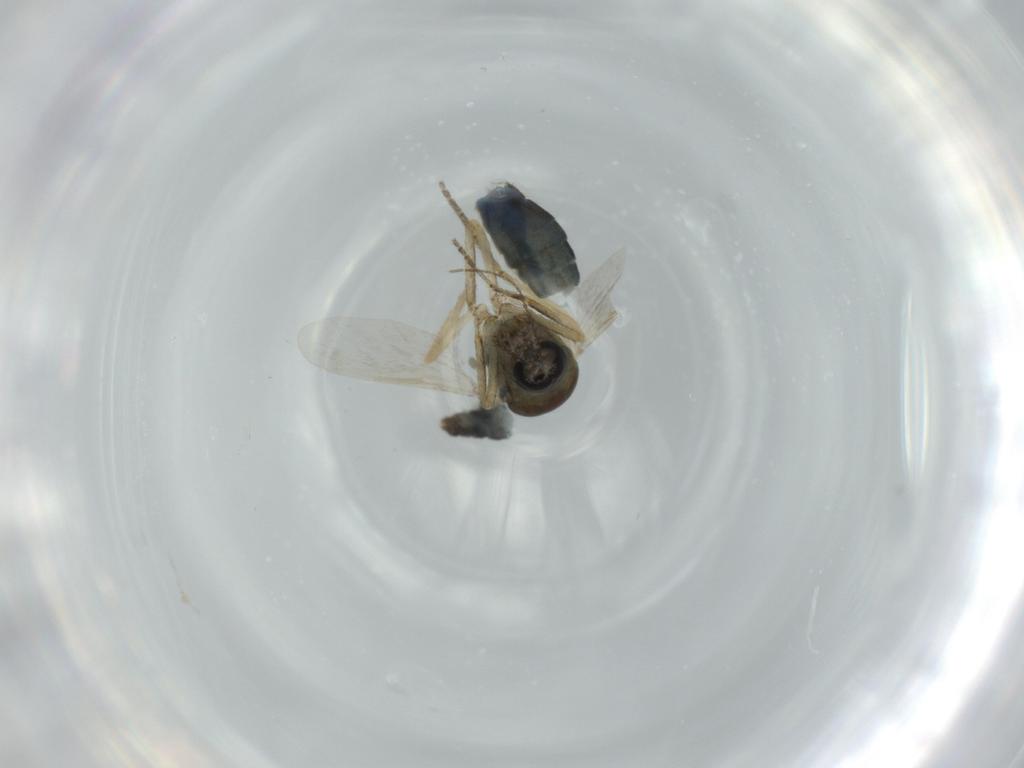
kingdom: Animalia
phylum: Arthropoda
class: Insecta
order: Diptera
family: Ceratopogonidae
